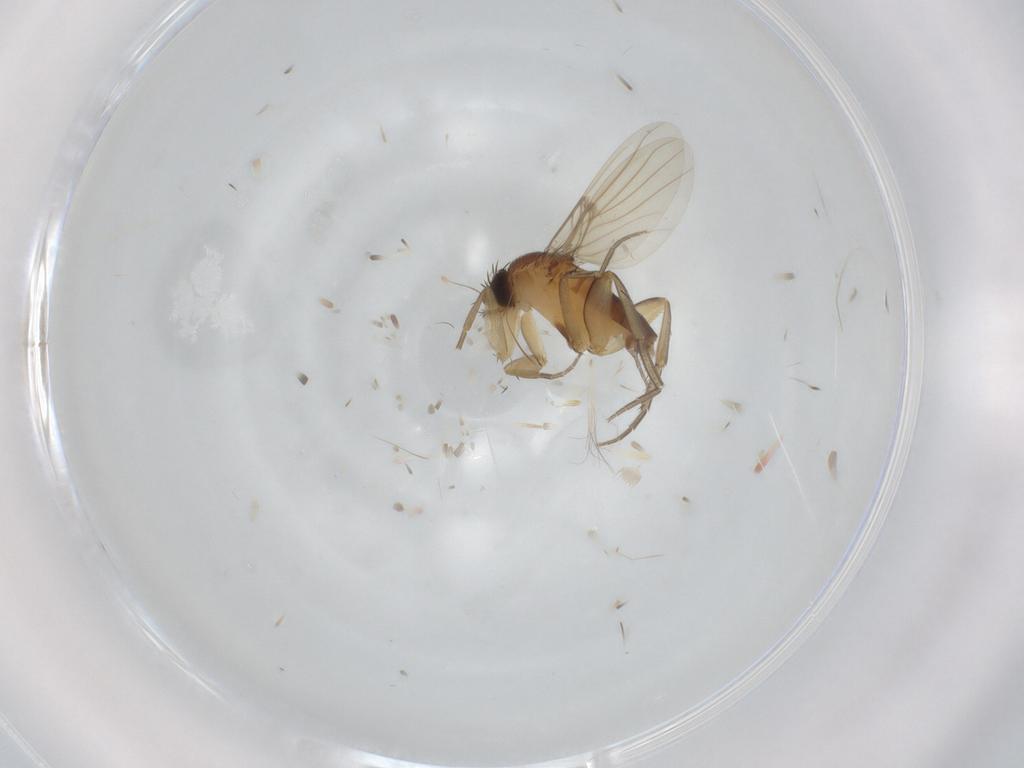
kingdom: Animalia
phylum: Arthropoda
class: Insecta
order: Diptera
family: Phoridae
